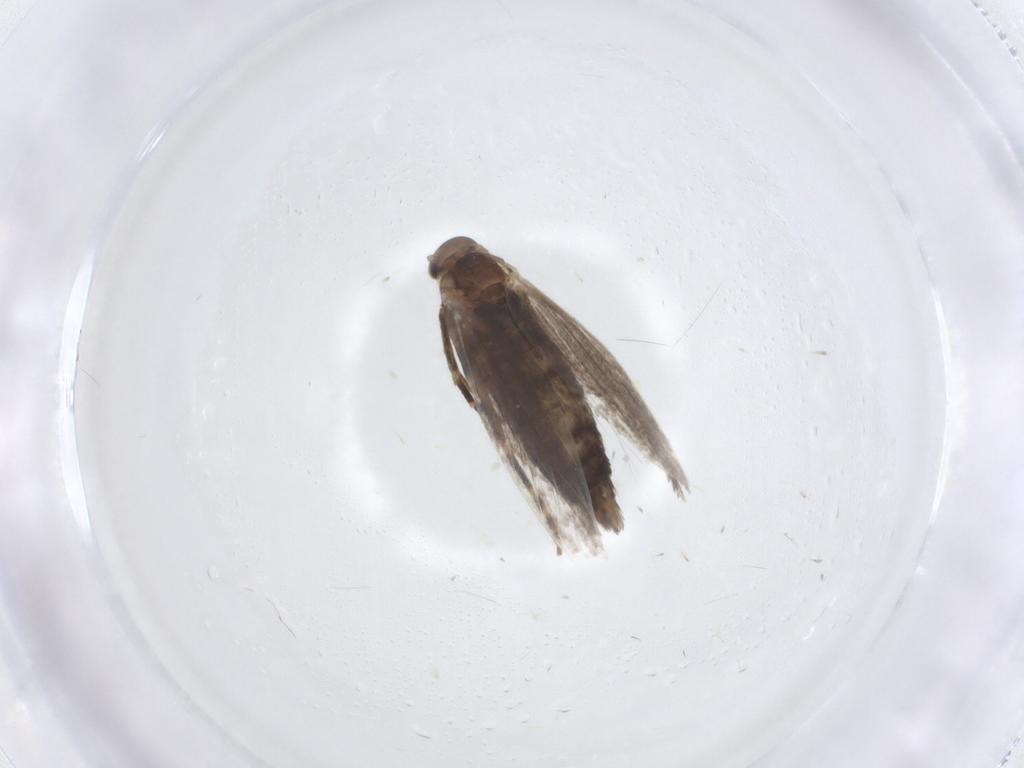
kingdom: Animalia
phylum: Arthropoda
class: Insecta
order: Lepidoptera
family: Elachistidae
